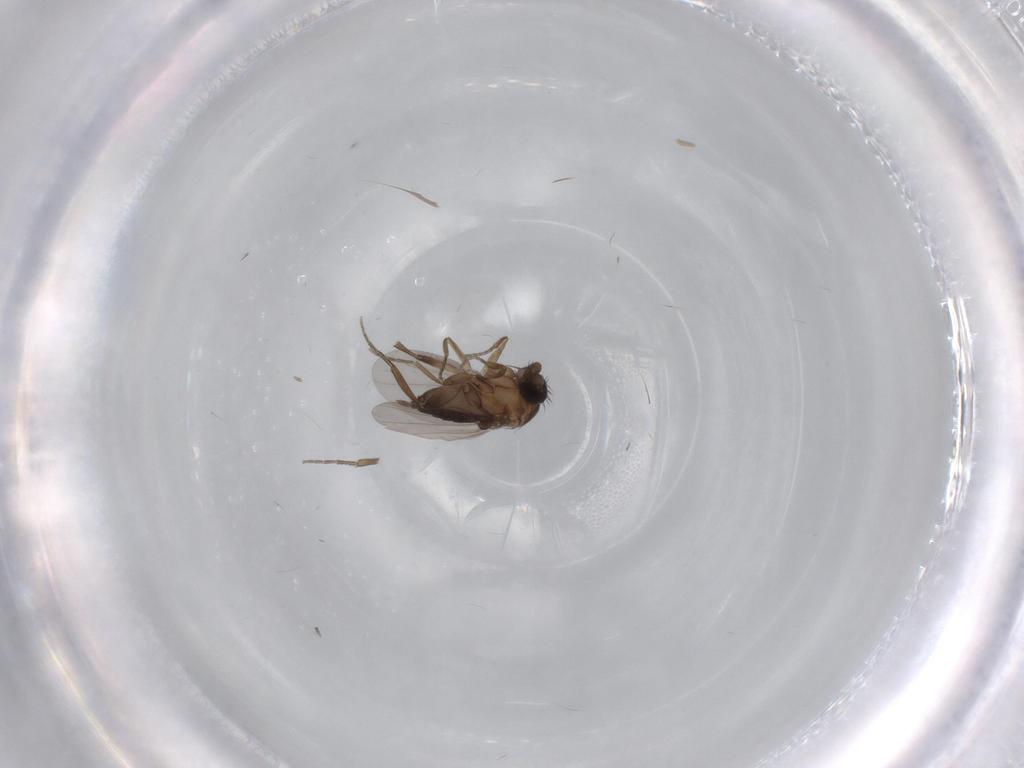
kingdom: Animalia
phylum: Arthropoda
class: Insecta
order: Diptera
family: Phoridae
